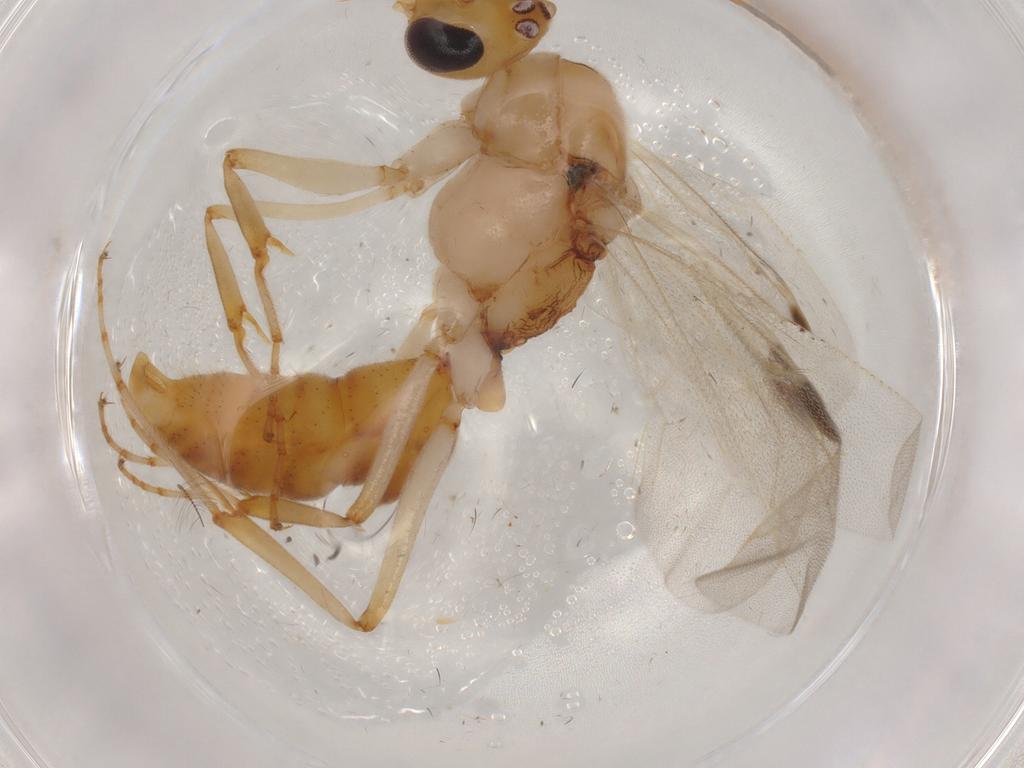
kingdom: Animalia
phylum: Arthropoda
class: Insecta
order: Hymenoptera
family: Formicidae
